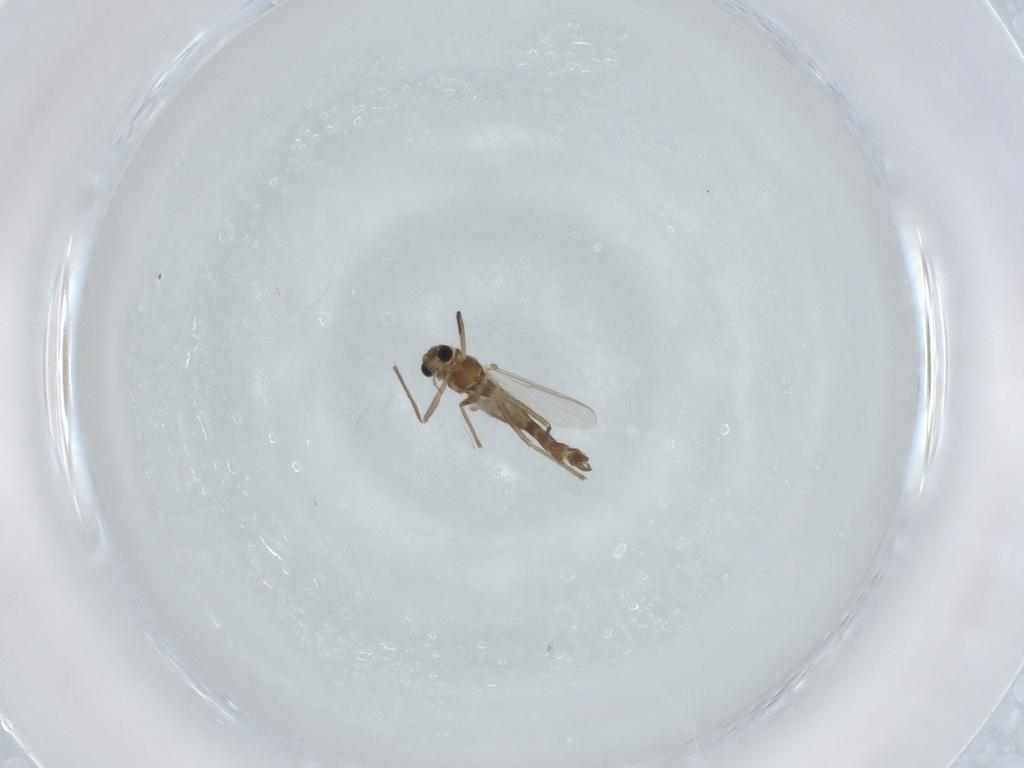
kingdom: Animalia
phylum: Arthropoda
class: Insecta
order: Diptera
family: Chironomidae
